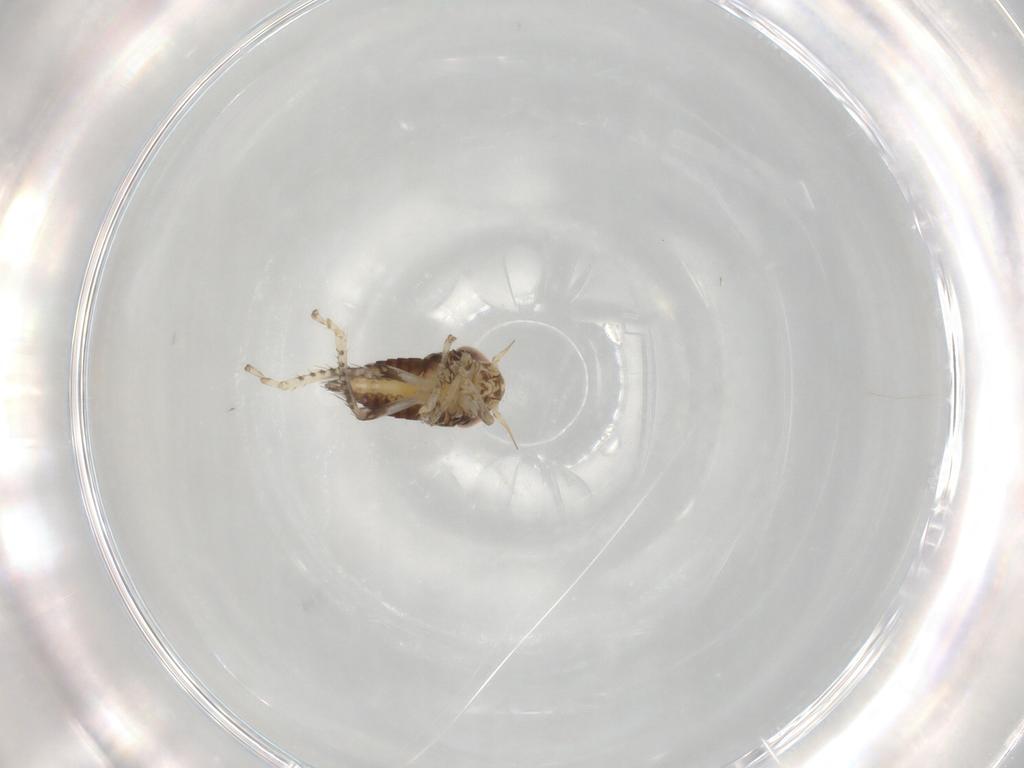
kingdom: Animalia
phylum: Arthropoda
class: Insecta
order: Hemiptera
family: Cicadellidae
